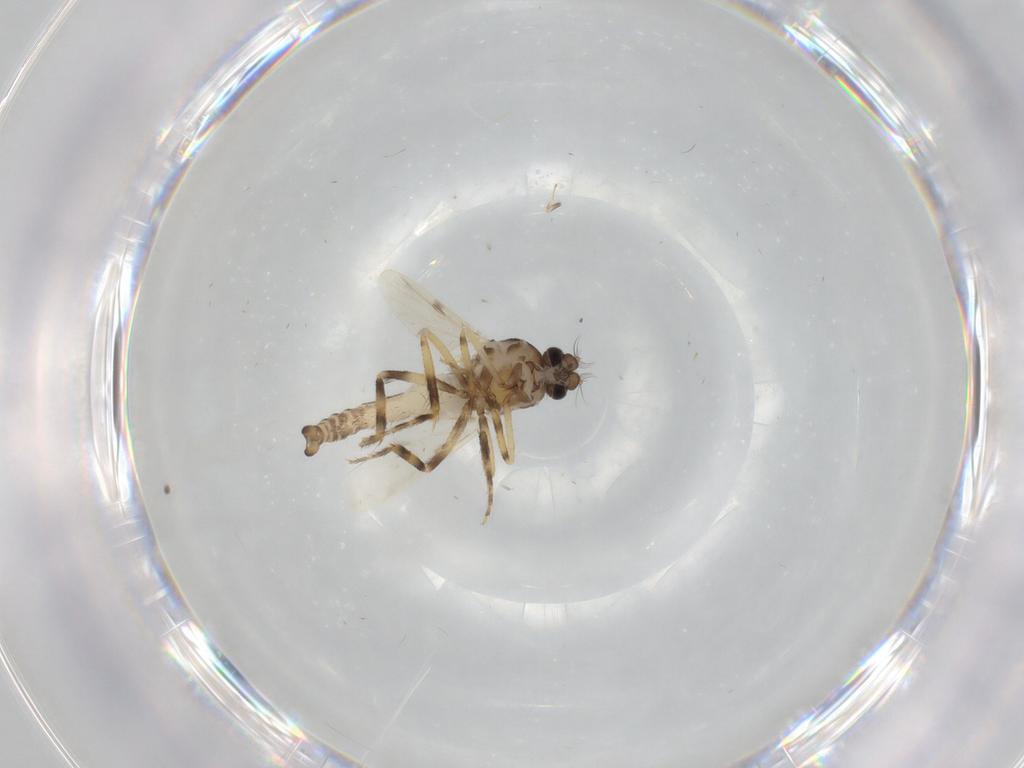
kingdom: Animalia
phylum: Arthropoda
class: Insecta
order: Diptera
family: Ceratopogonidae
